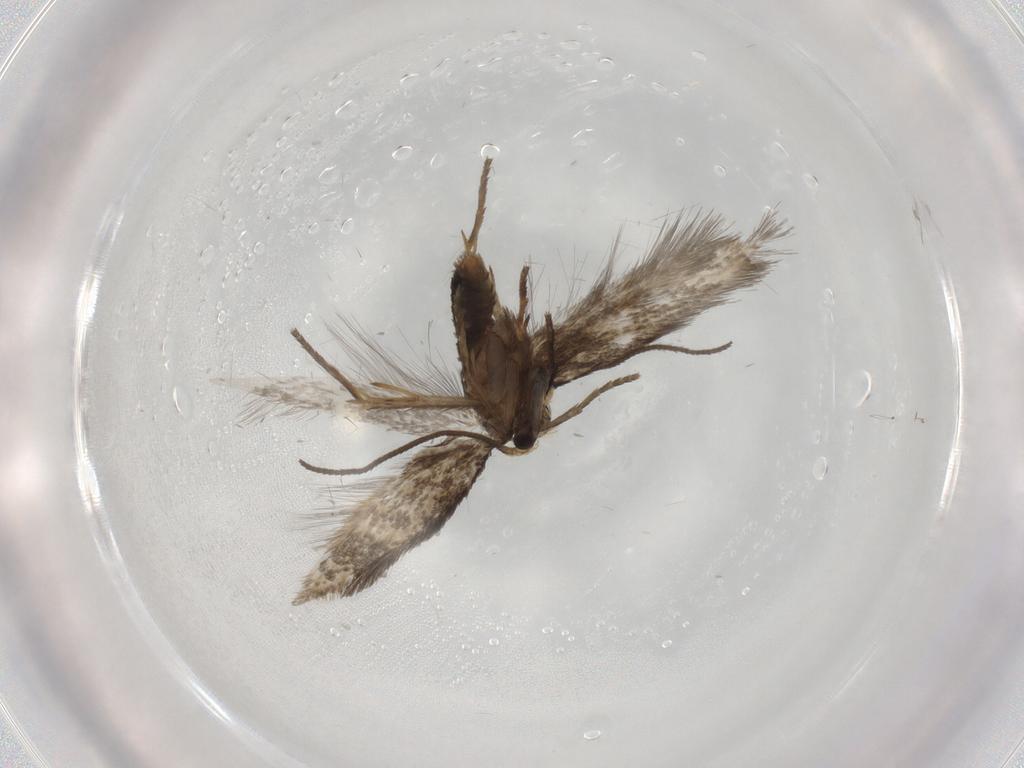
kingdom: Animalia
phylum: Arthropoda
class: Insecta
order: Lepidoptera
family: Nepticulidae
